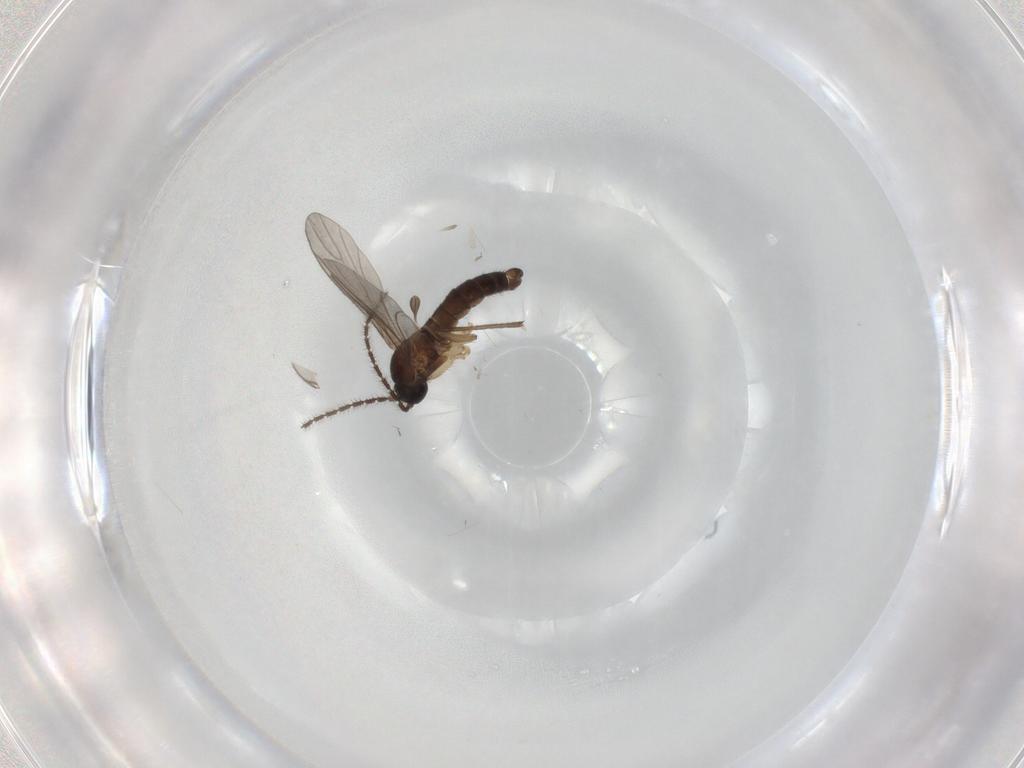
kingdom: Animalia
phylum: Arthropoda
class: Insecta
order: Diptera
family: Sciaridae
